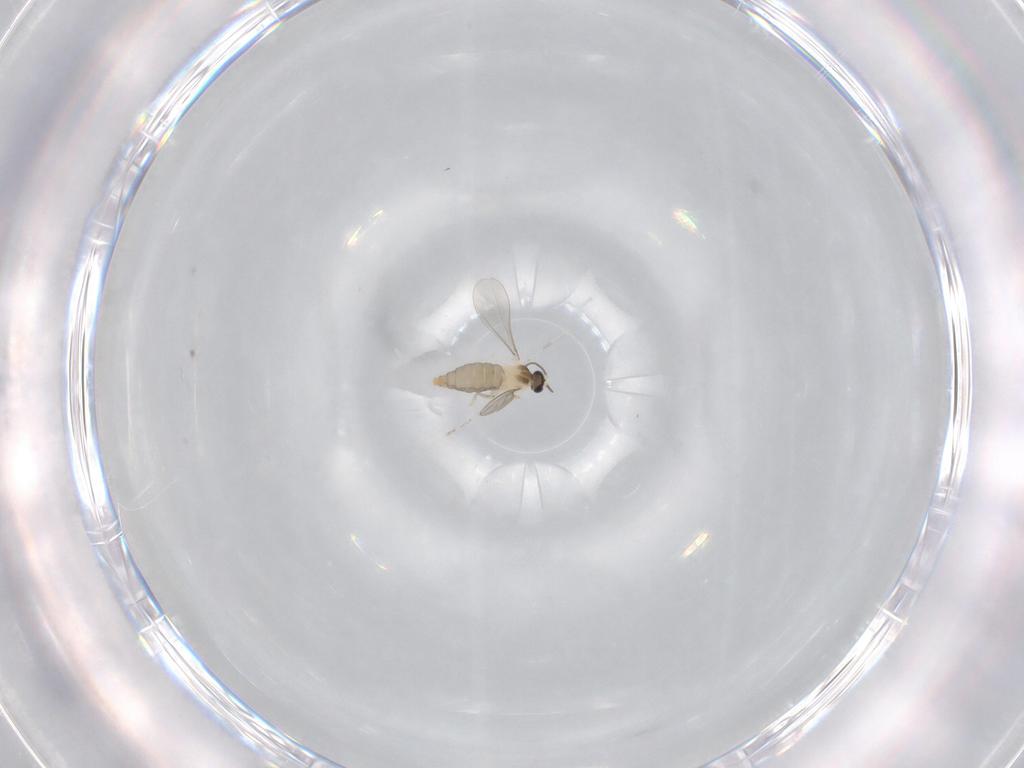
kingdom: Animalia
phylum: Arthropoda
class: Insecta
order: Diptera
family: Cecidomyiidae
